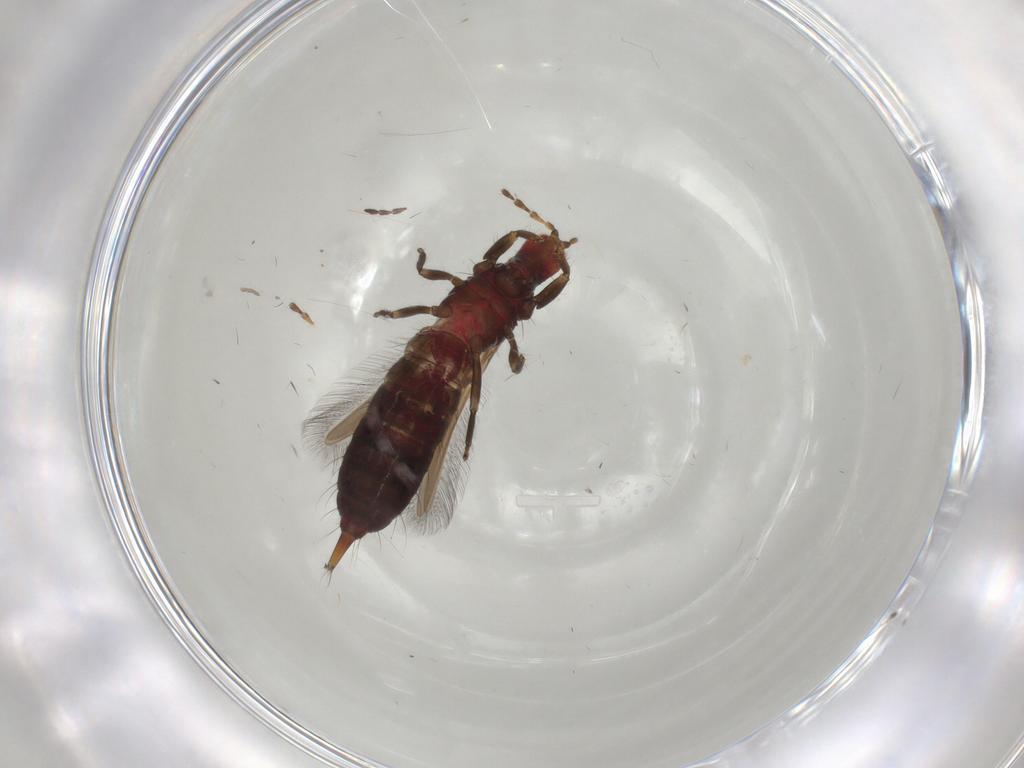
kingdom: Animalia
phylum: Arthropoda
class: Insecta
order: Thysanoptera
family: Phlaeothripidae
